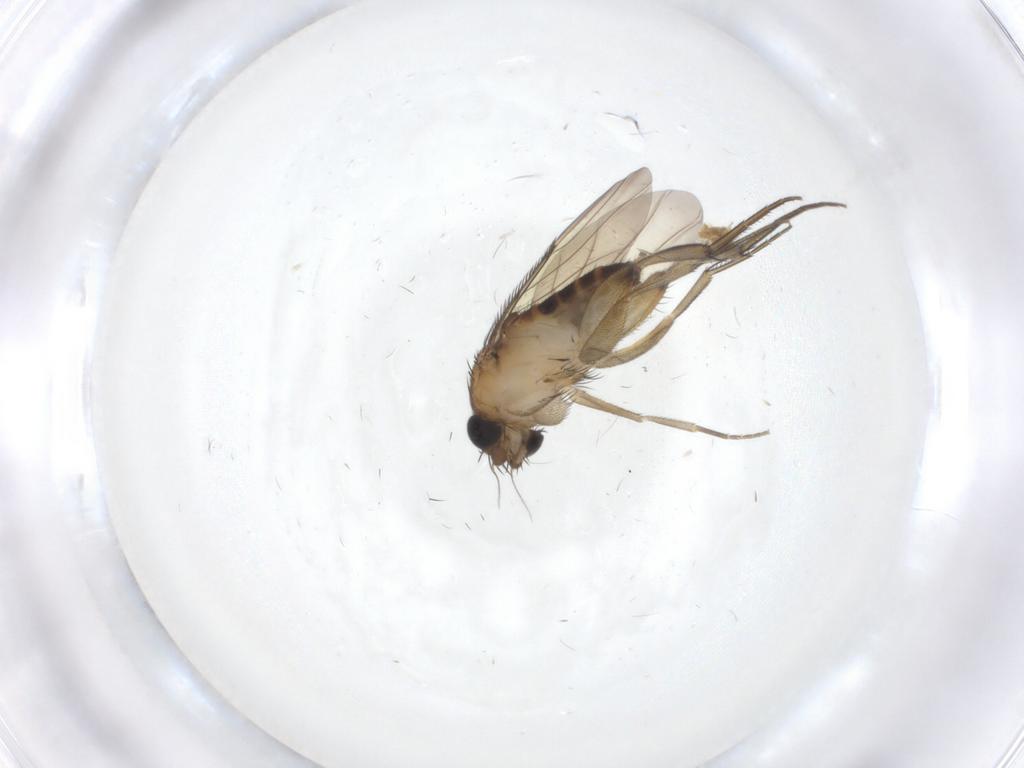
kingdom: Animalia
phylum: Arthropoda
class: Insecta
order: Diptera
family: Phoridae
